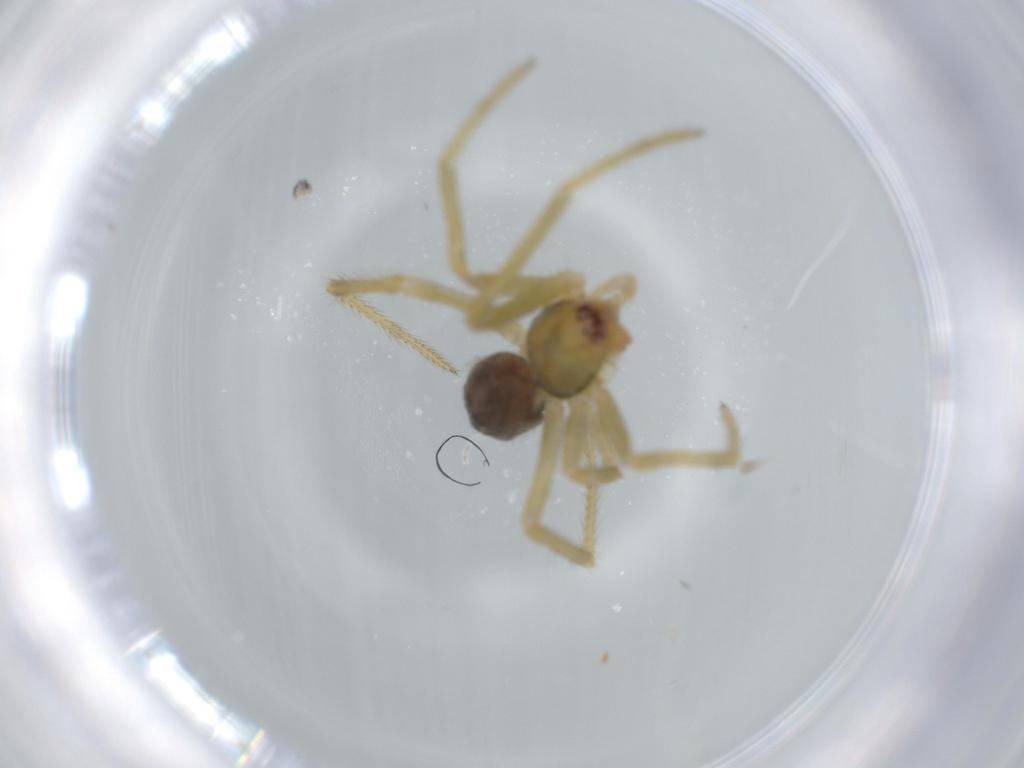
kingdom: Animalia
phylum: Arthropoda
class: Arachnida
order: Araneae
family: Nesticidae
